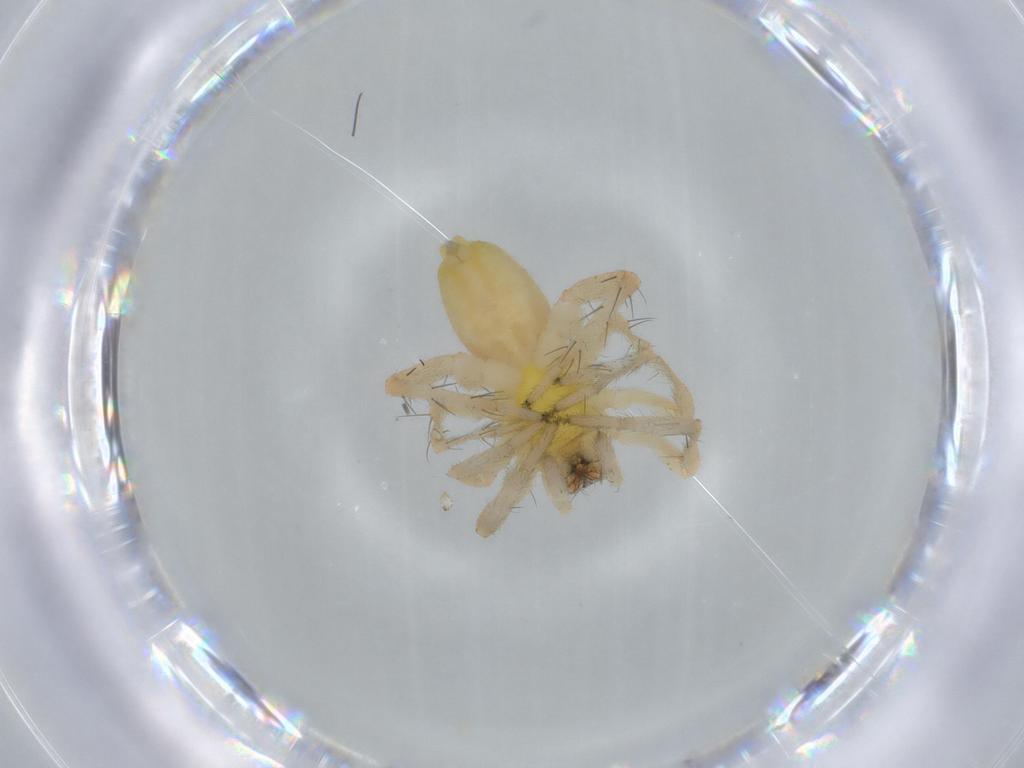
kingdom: Animalia
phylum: Arthropoda
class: Arachnida
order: Araneae
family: Anyphaenidae
